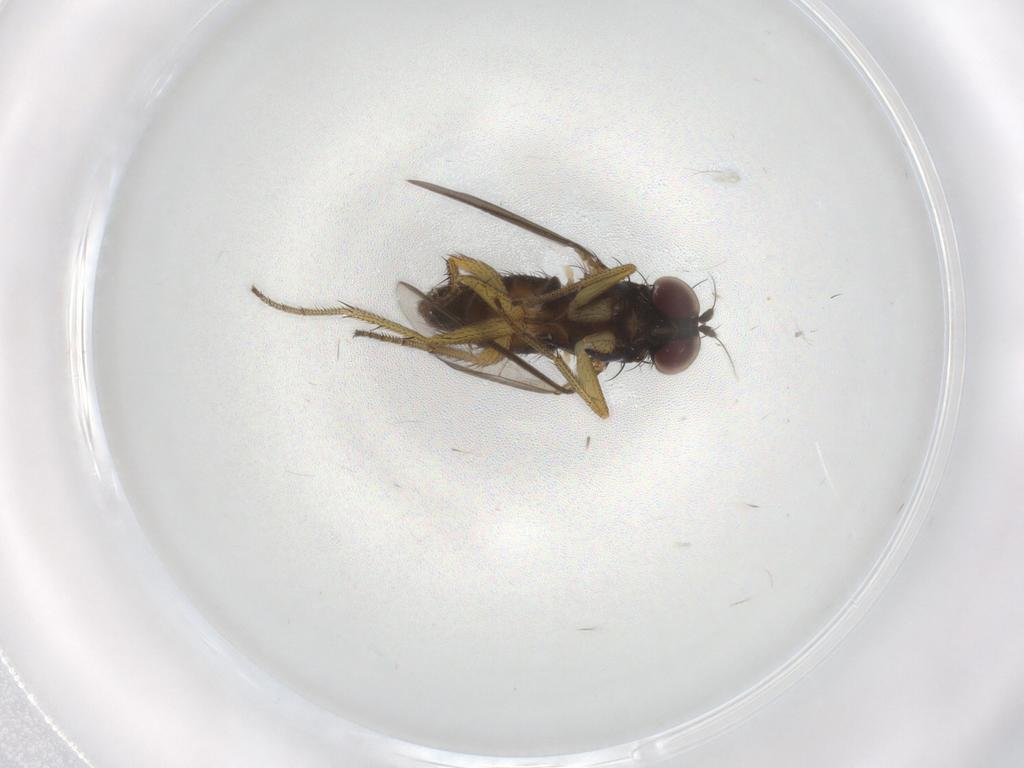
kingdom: Animalia
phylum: Arthropoda
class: Insecta
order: Diptera
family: Dolichopodidae
